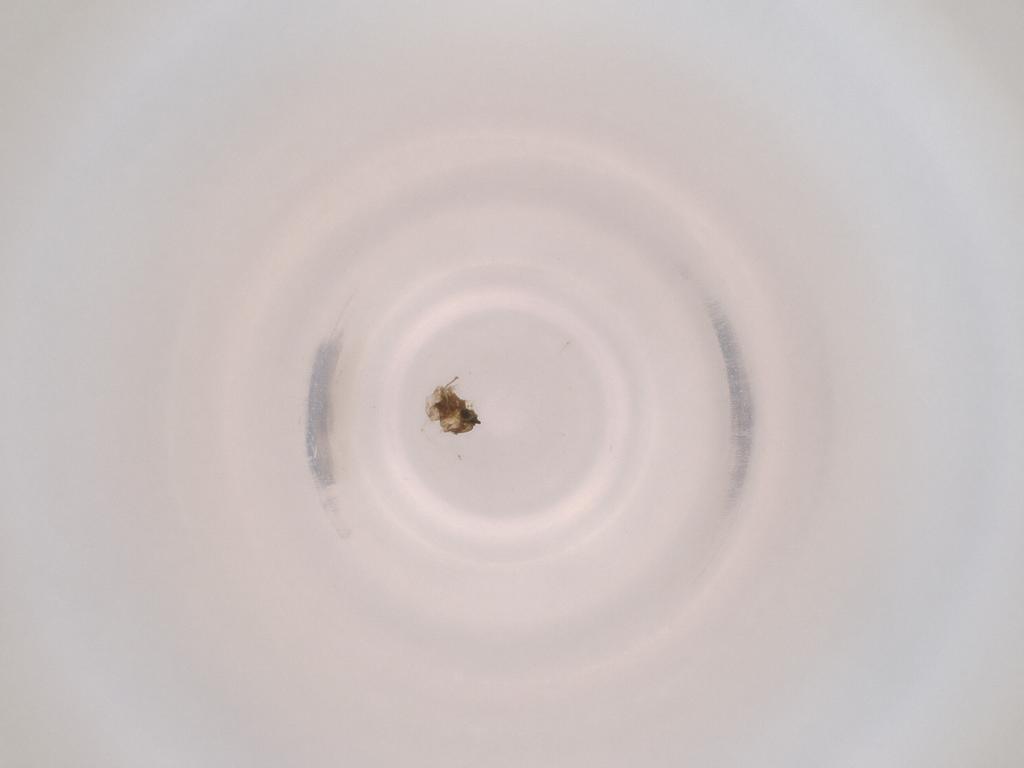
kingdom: Animalia
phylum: Arthropoda
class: Insecta
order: Diptera
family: Cecidomyiidae
